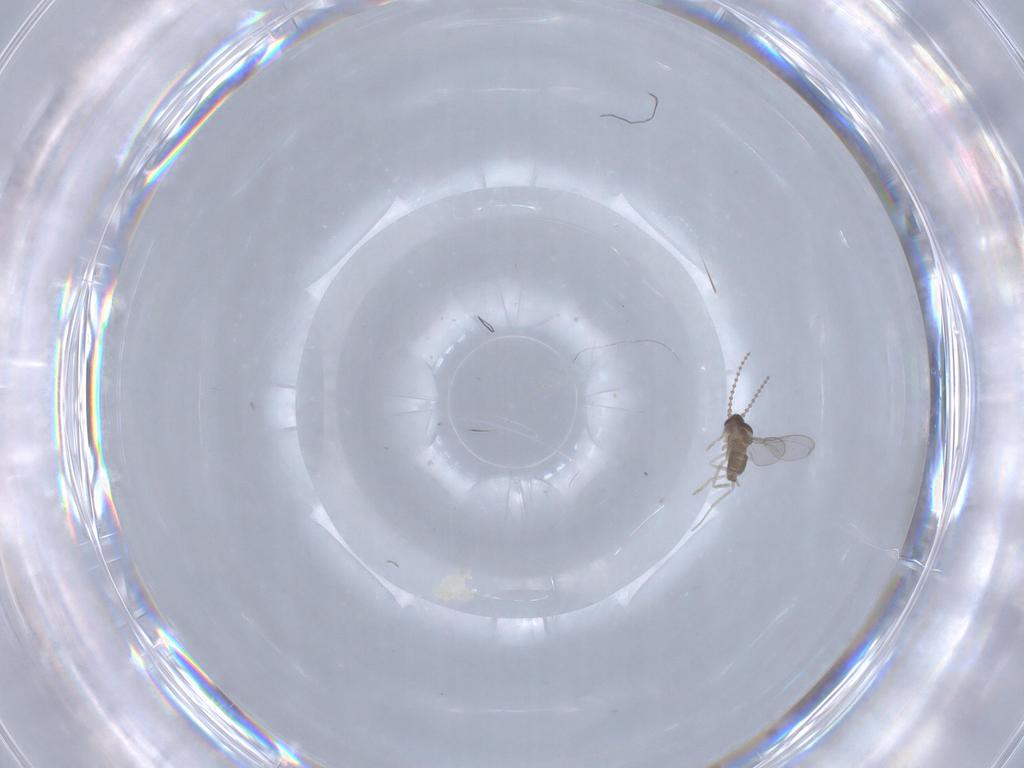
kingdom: Animalia
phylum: Arthropoda
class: Insecta
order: Diptera
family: Cecidomyiidae
